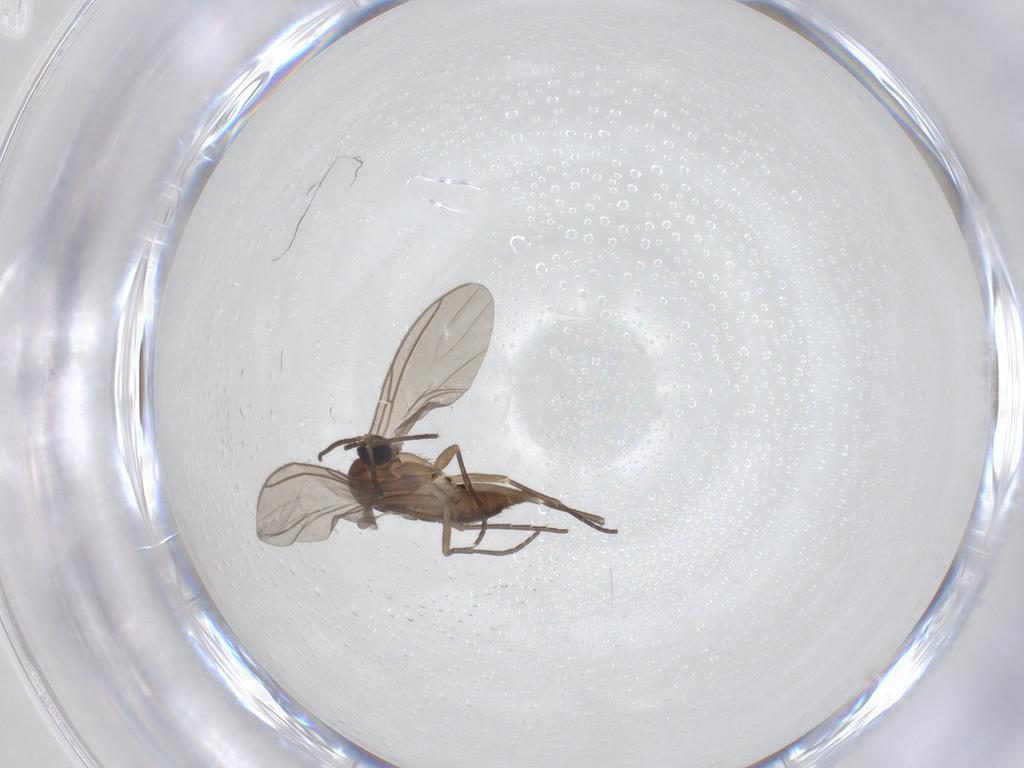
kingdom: Animalia
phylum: Arthropoda
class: Insecta
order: Diptera
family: Sciaridae
